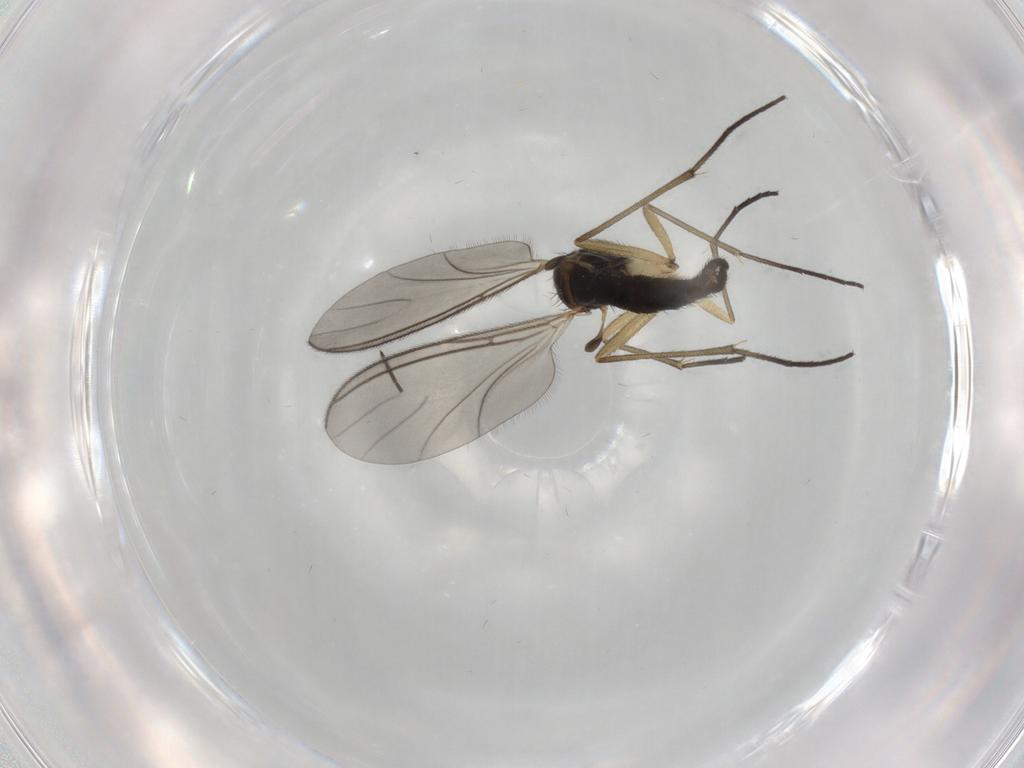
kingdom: Animalia
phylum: Arthropoda
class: Insecta
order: Diptera
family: Sciaridae
